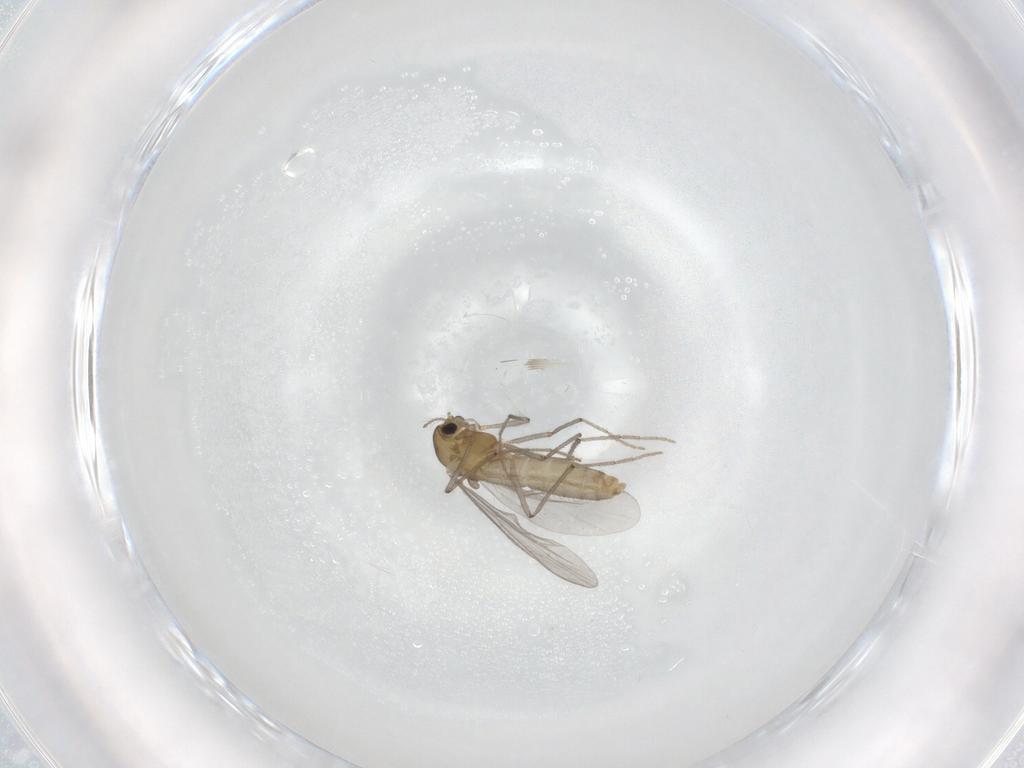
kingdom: Animalia
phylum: Arthropoda
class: Insecta
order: Diptera
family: Chironomidae
